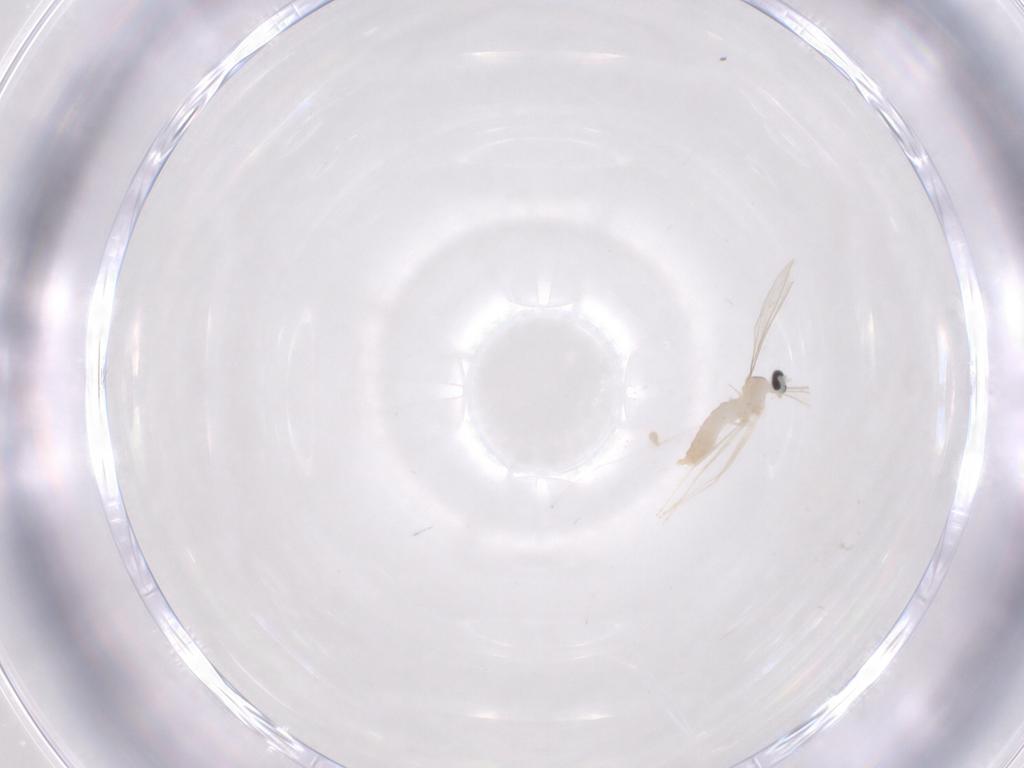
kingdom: Animalia
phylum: Arthropoda
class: Insecta
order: Diptera
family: Cecidomyiidae
